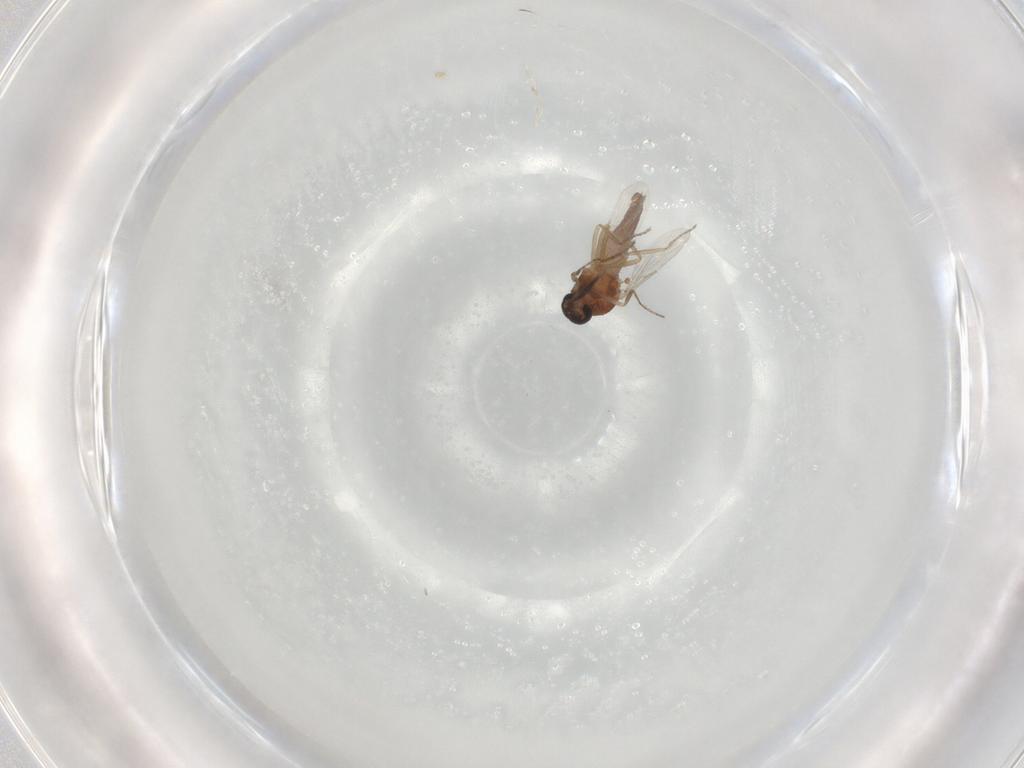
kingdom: Animalia
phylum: Arthropoda
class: Insecta
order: Diptera
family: Ceratopogonidae
